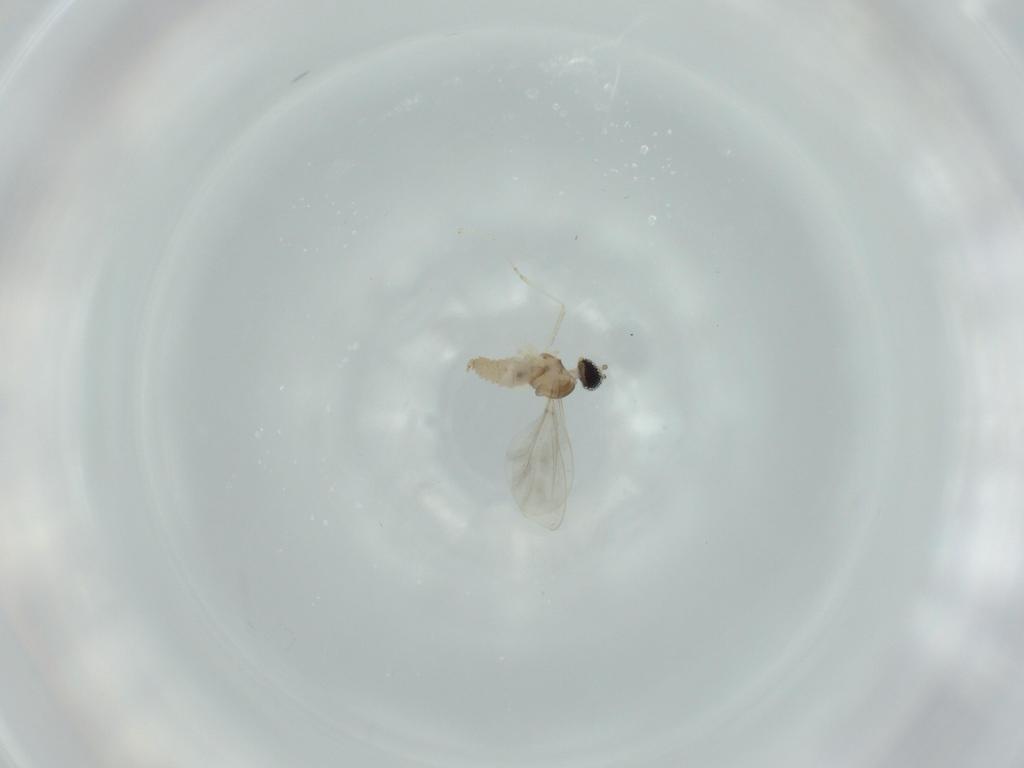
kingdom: Animalia
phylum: Arthropoda
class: Insecta
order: Diptera
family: Cecidomyiidae
